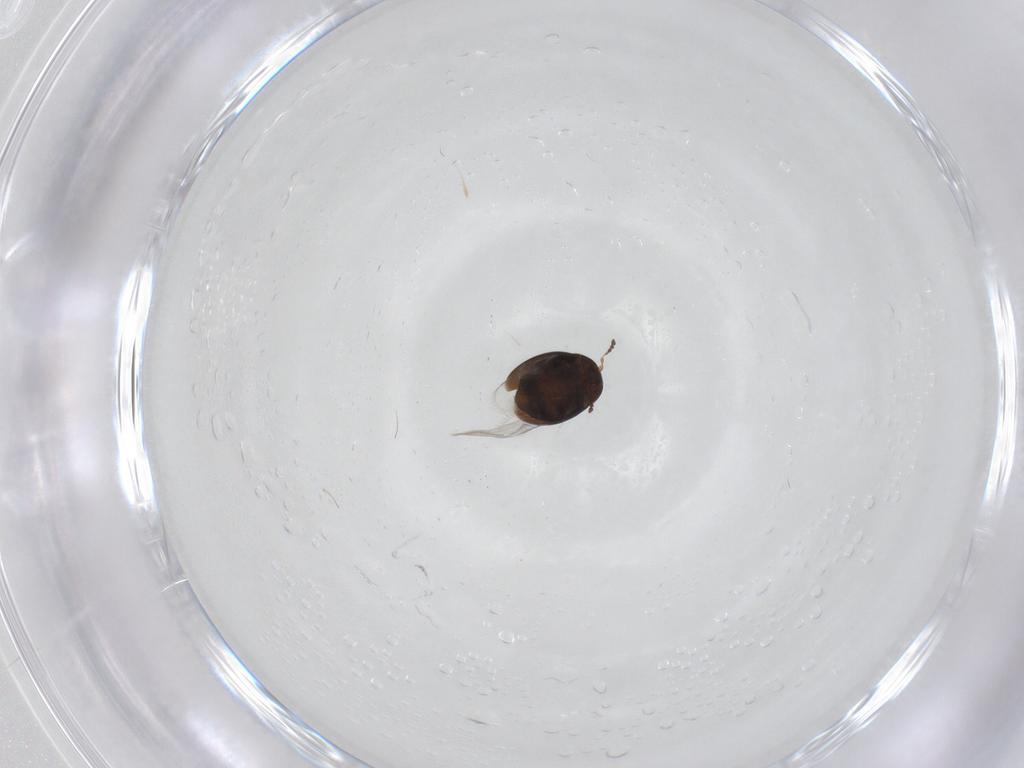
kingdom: Animalia
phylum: Arthropoda
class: Insecta
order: Coleoptera
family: Corylophidae
